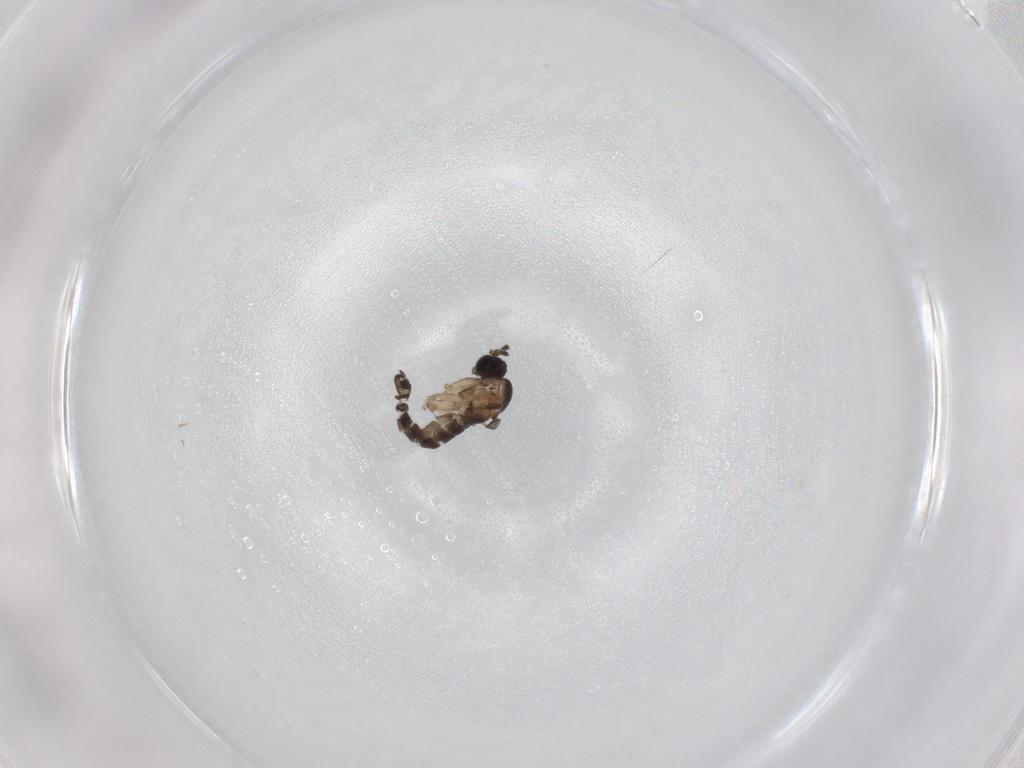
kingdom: Animalia
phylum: Arthropoda
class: Insecta
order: Diptera
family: Sciaridae
